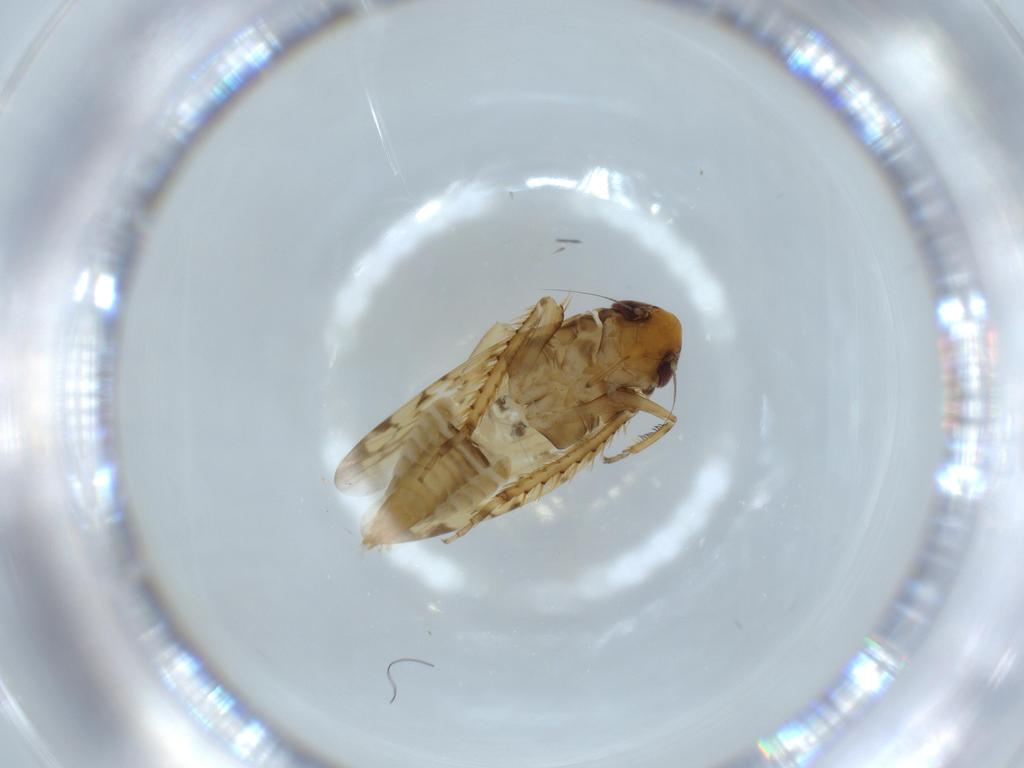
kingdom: Animalia
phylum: Arthropoda
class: Insecta
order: Hemiptera
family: Cicadellidae
